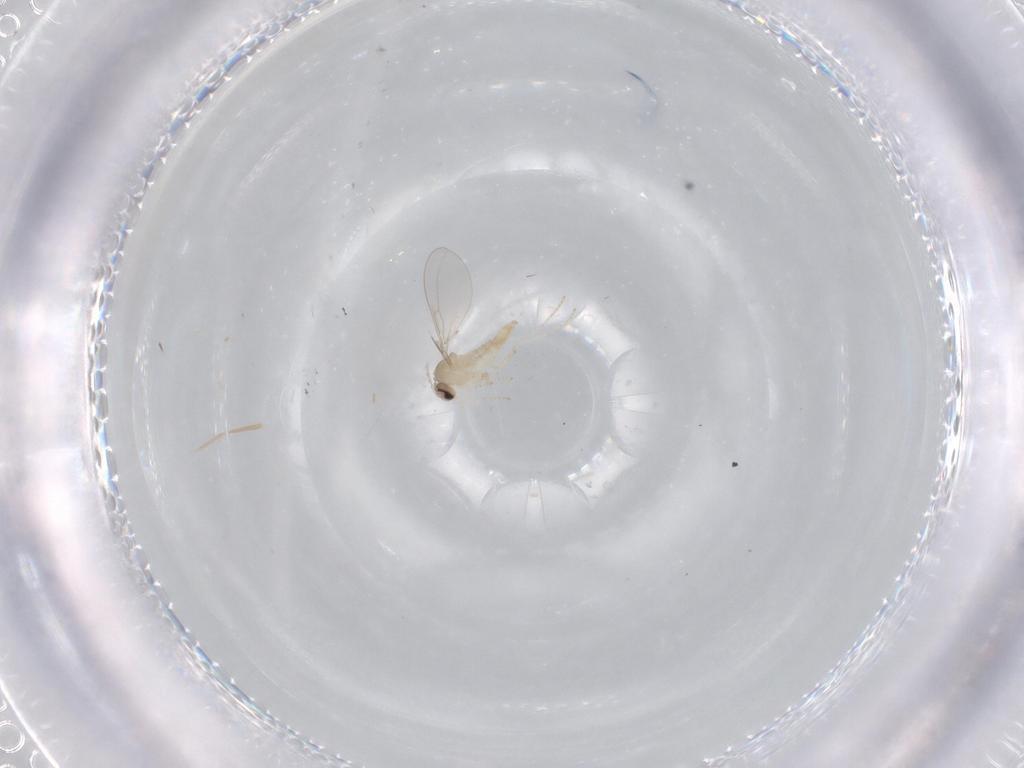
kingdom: Animalia
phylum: Arthropoda
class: Insecta
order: Diptera
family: Cecidomyiidae
